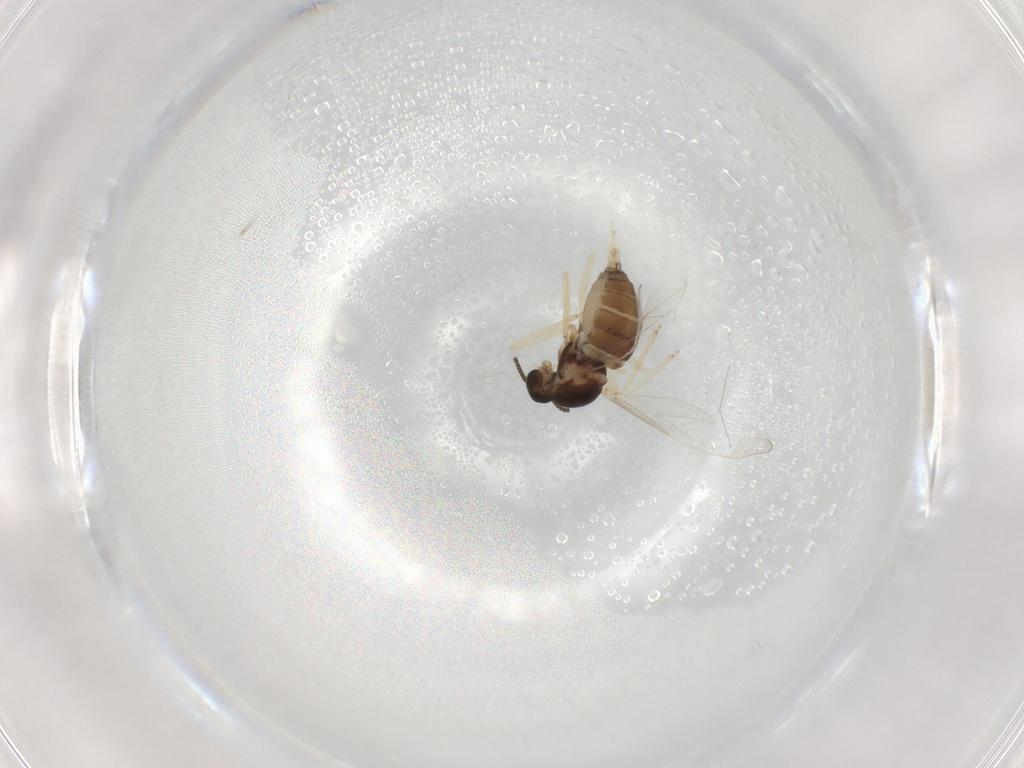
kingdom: Animalia
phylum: Arthropoda
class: Insecta
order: Diptera
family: Cecidomyiidae
